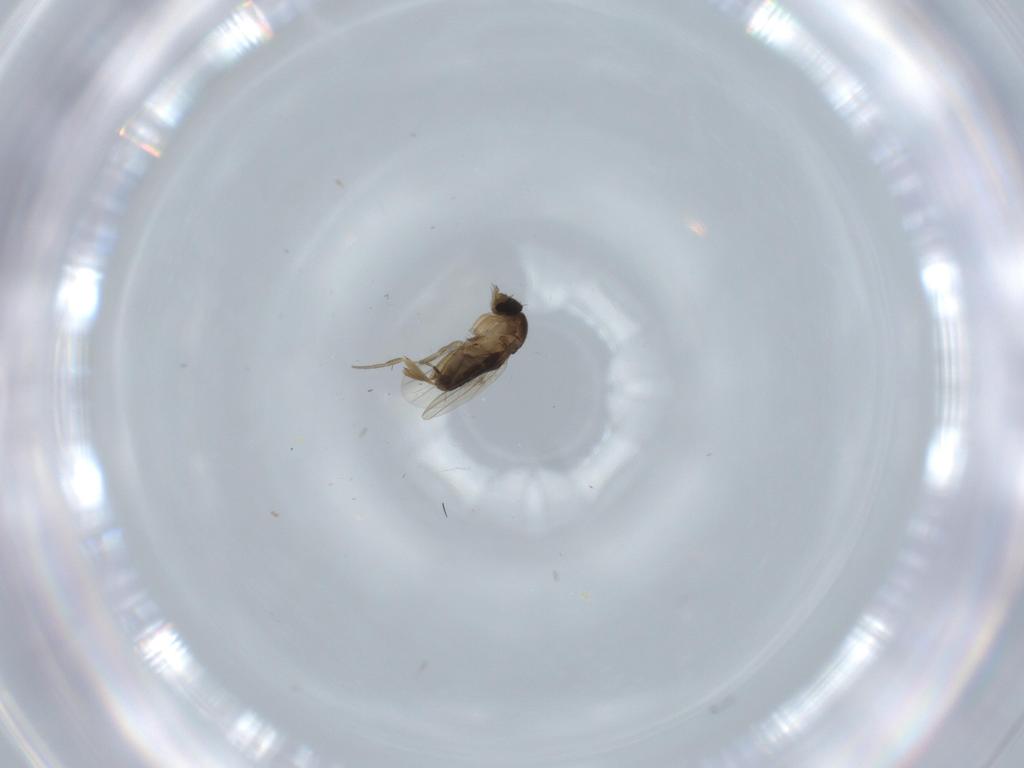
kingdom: Animalia
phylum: Arthropoda
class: Insecta
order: Diptera
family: Phoridae
